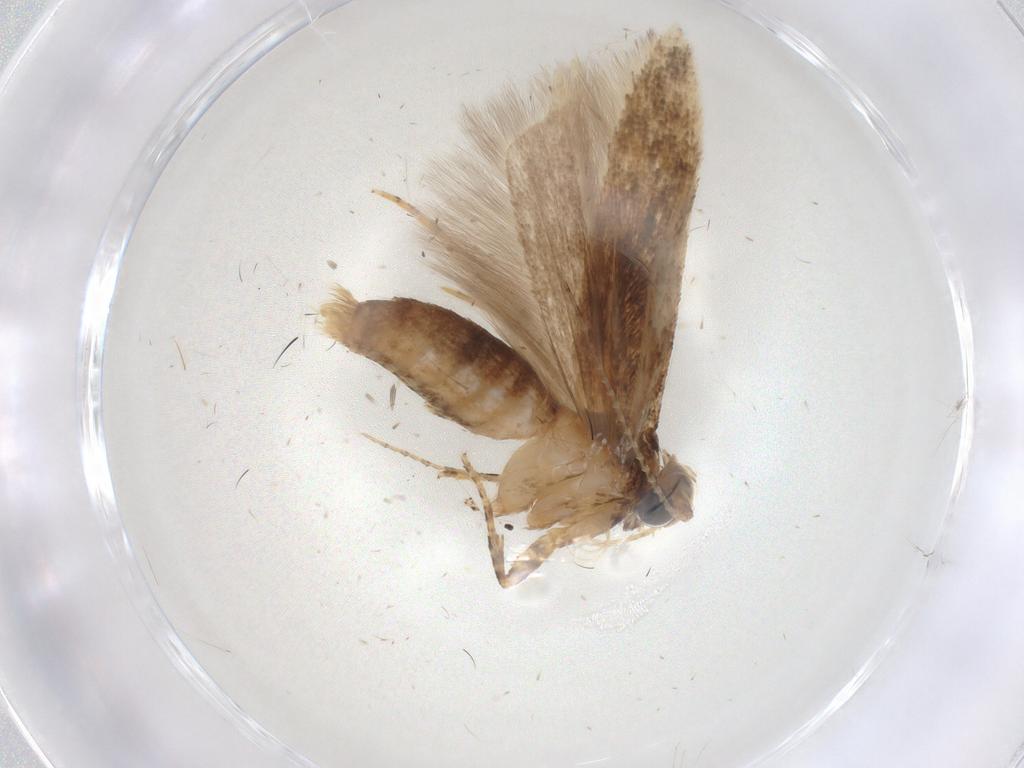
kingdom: Animalia
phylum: Arthropoda
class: Insecta
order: Lepidoptera
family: Gelechiidae
